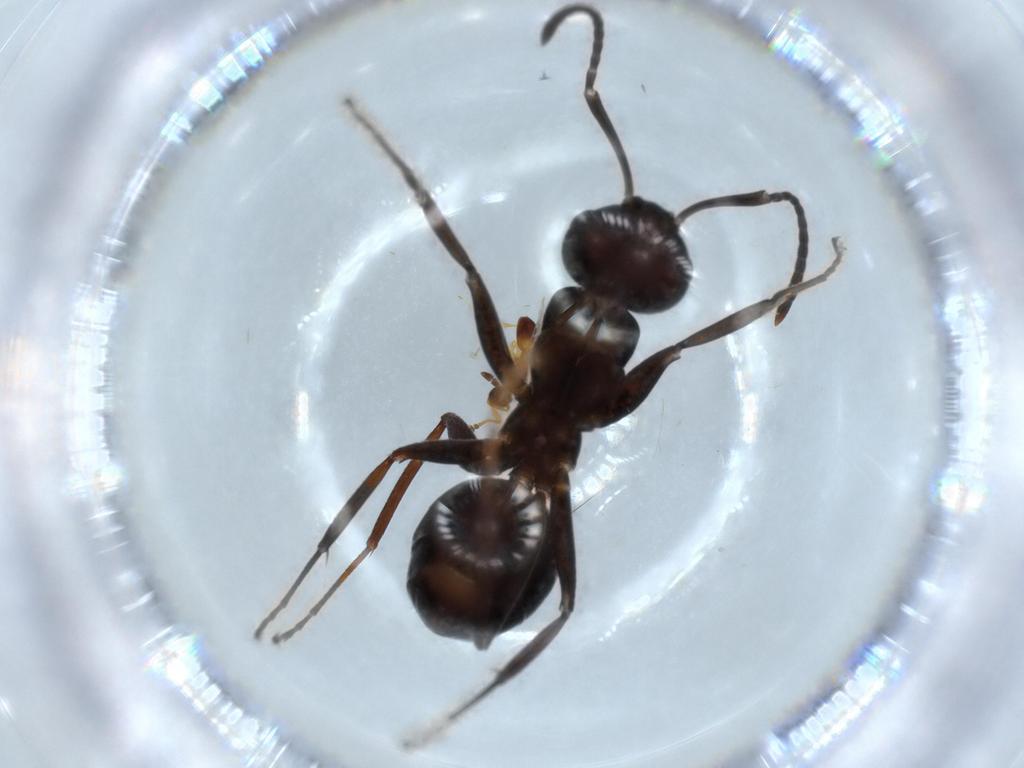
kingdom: Animalia
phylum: Arthropoda
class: Insecta
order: Hymenoptera
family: Formicidae
